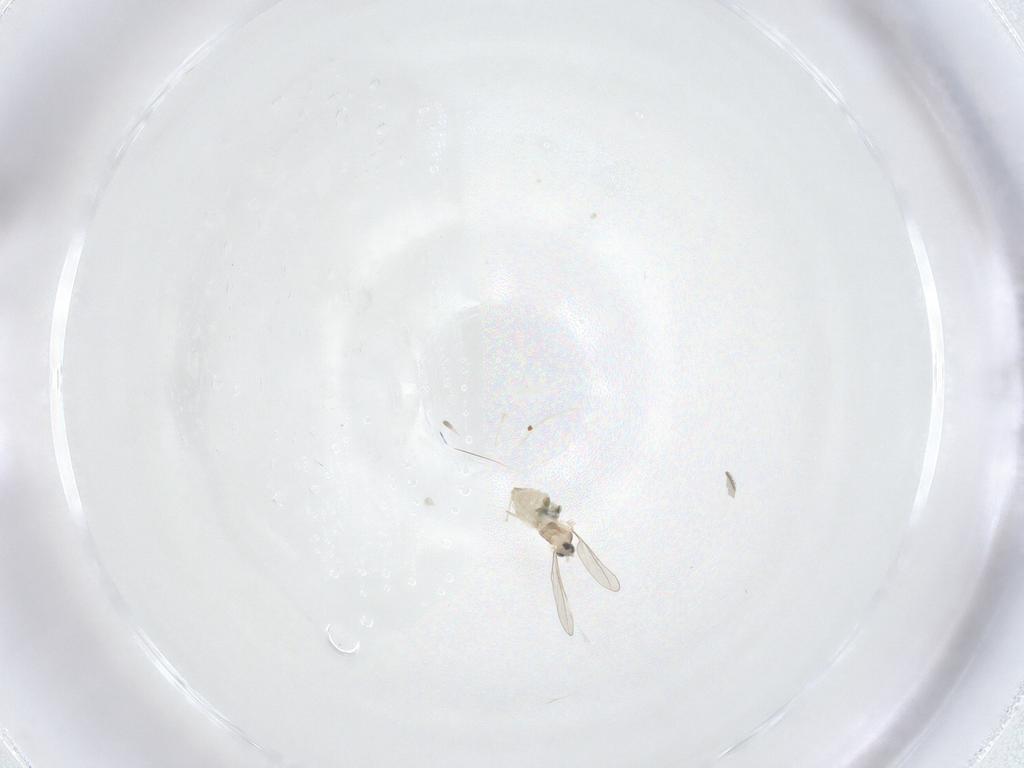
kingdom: Animalia
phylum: Arthropoda
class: Insecta
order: Diptera
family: Cecidomyiidae
